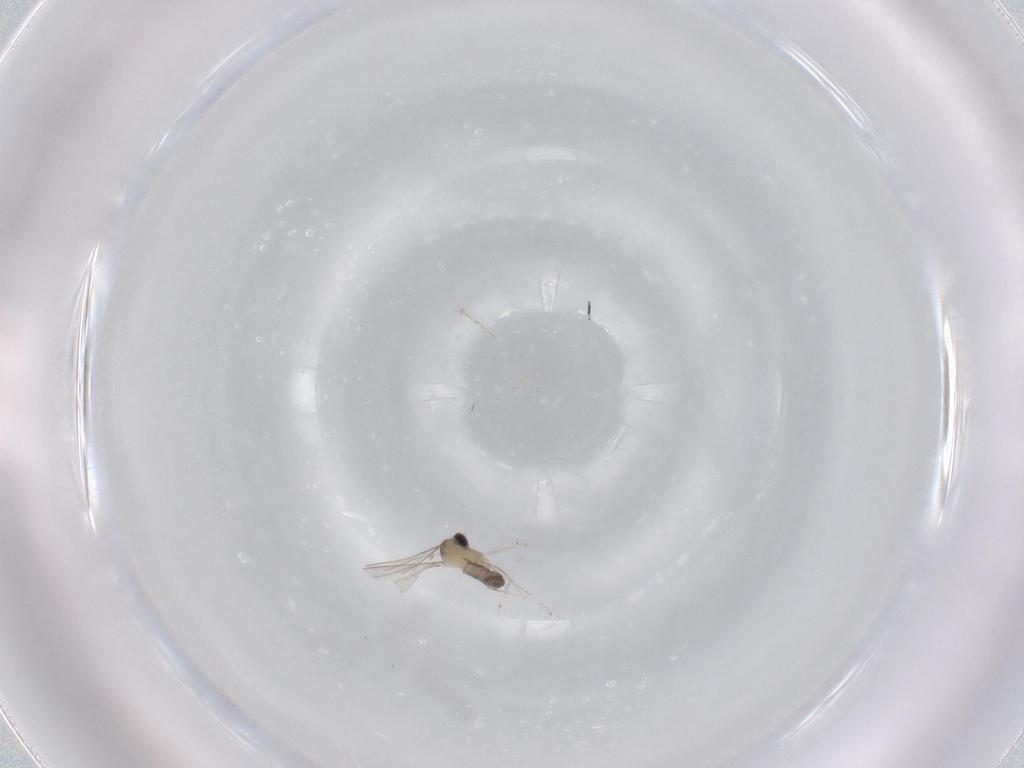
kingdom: Animalia
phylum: Arthropoda
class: Insecta
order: Diptera
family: Cecidomyiidae
